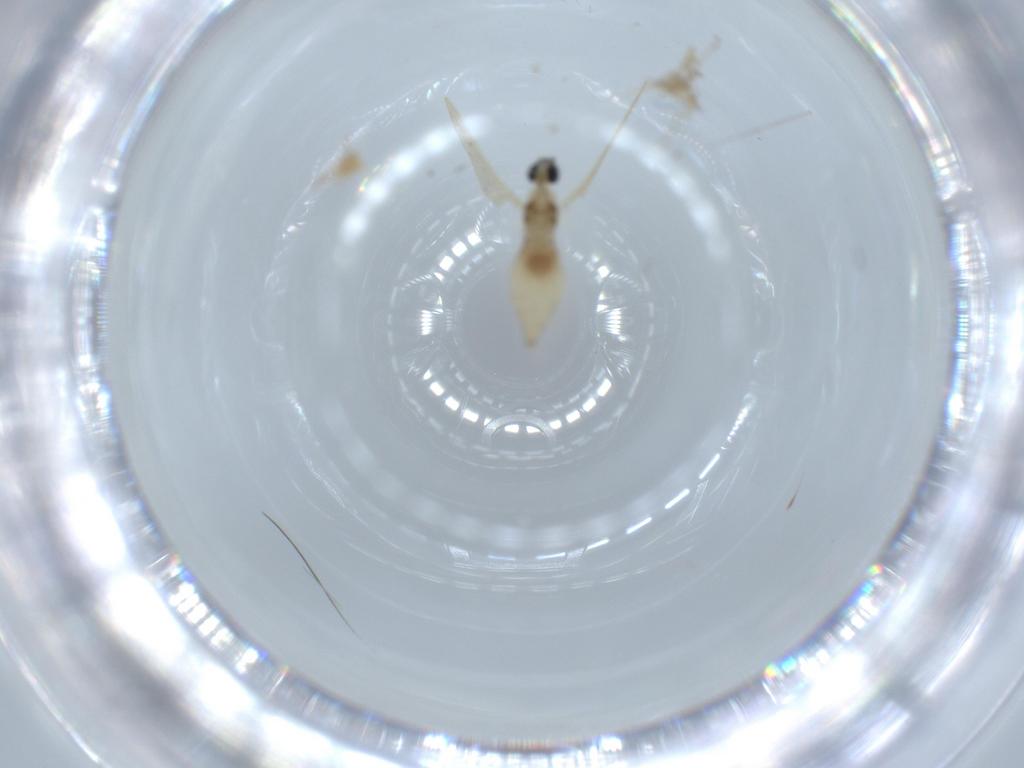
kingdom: Animalia
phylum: Arthropoda
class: Insecta
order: Diptera
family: Cecidomyiidae
